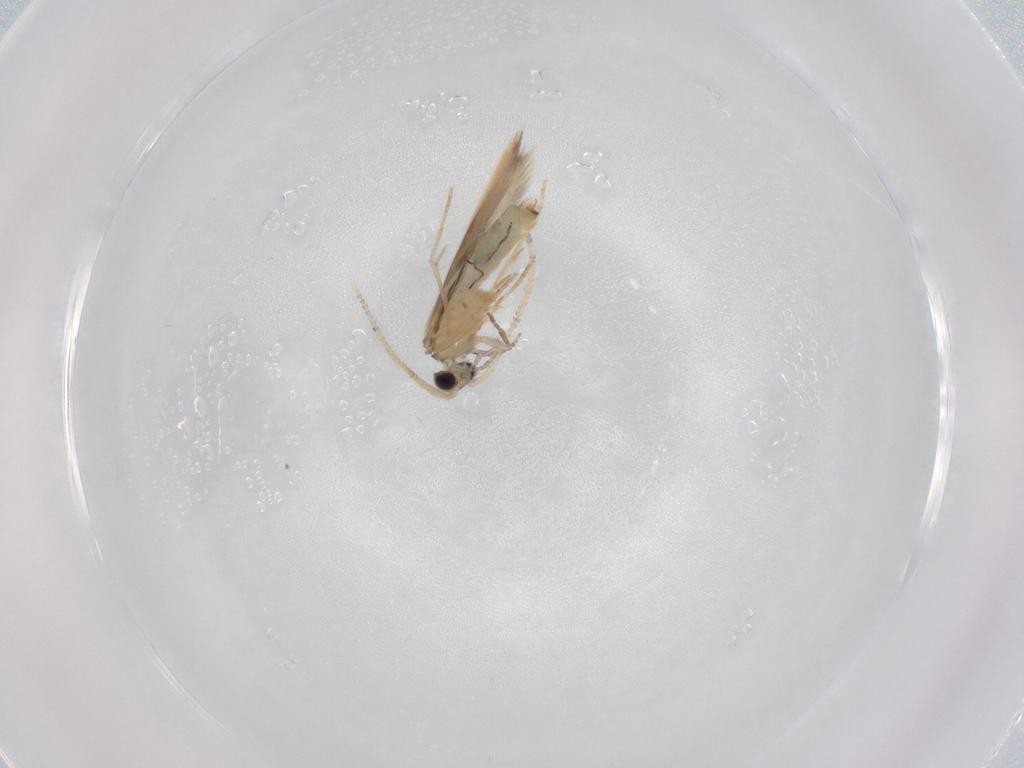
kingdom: Animalia
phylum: Arthropoda
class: Insecta
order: Trichoptera
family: Hydroptilidae
